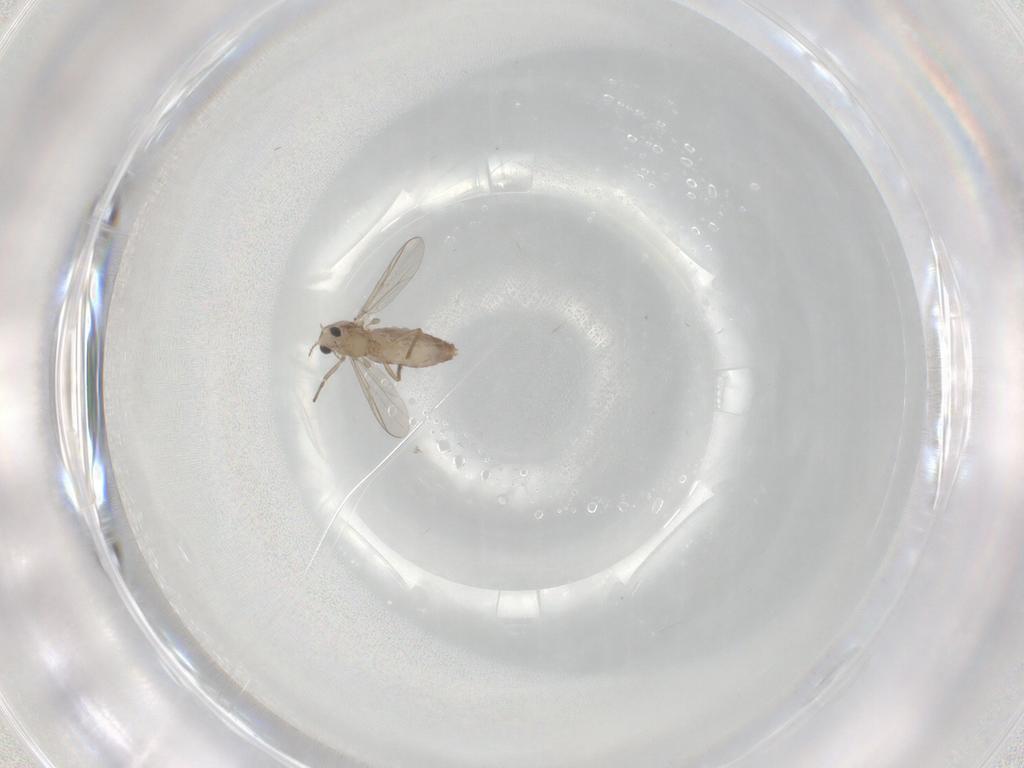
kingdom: Animalia
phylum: Arthropoda
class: Insecta
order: Diptera
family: Chironomidae
